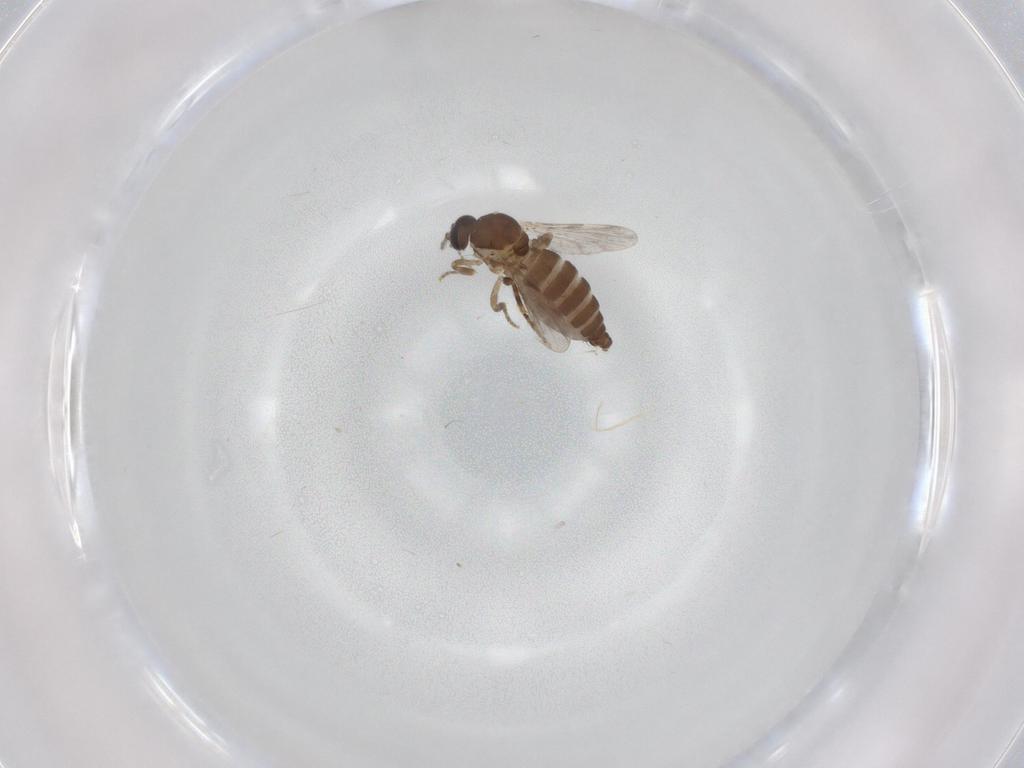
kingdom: Animalia
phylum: Arthropoda
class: Insecta
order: Diptera
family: Ceratopogonidae
